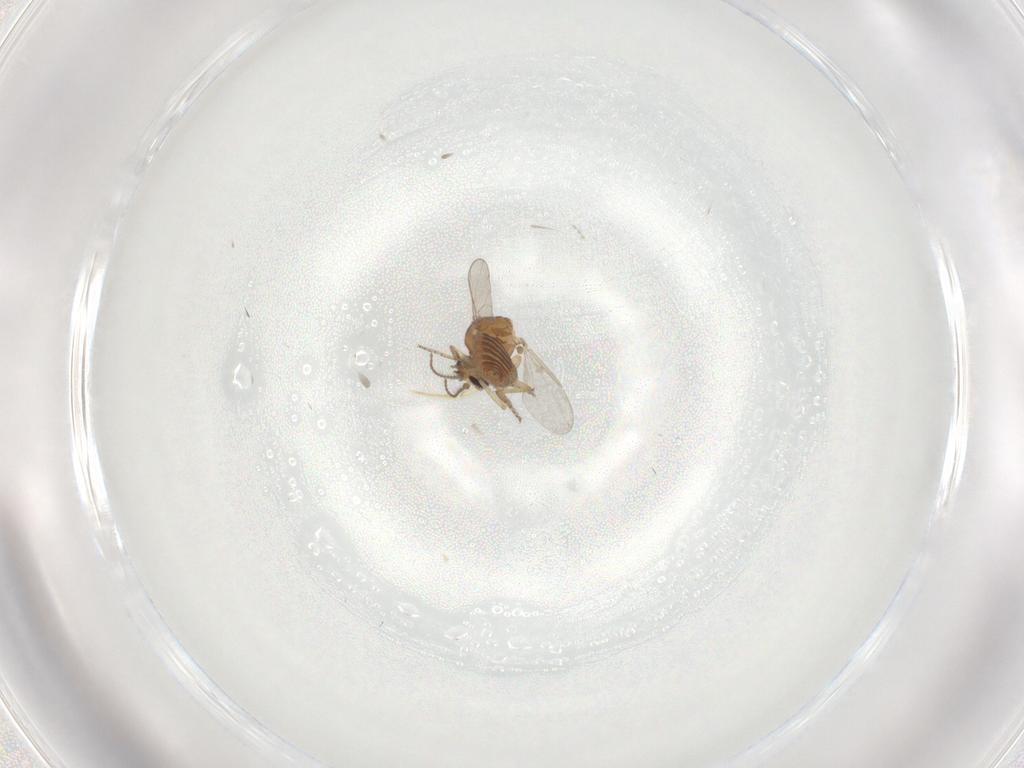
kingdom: Animalia
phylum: Arthropoda
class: Insecta
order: Diptera
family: Ceratopogonidae
